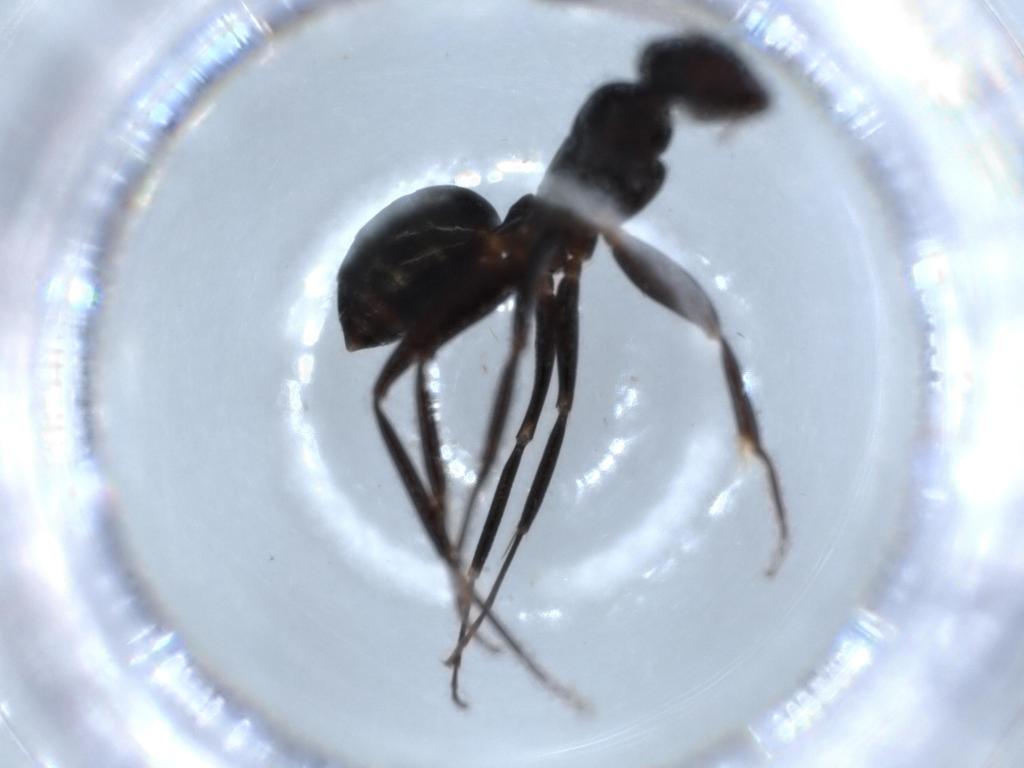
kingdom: Animalia
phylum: Arthropoda
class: Insecta
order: Hymenoptera
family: Formicidae
